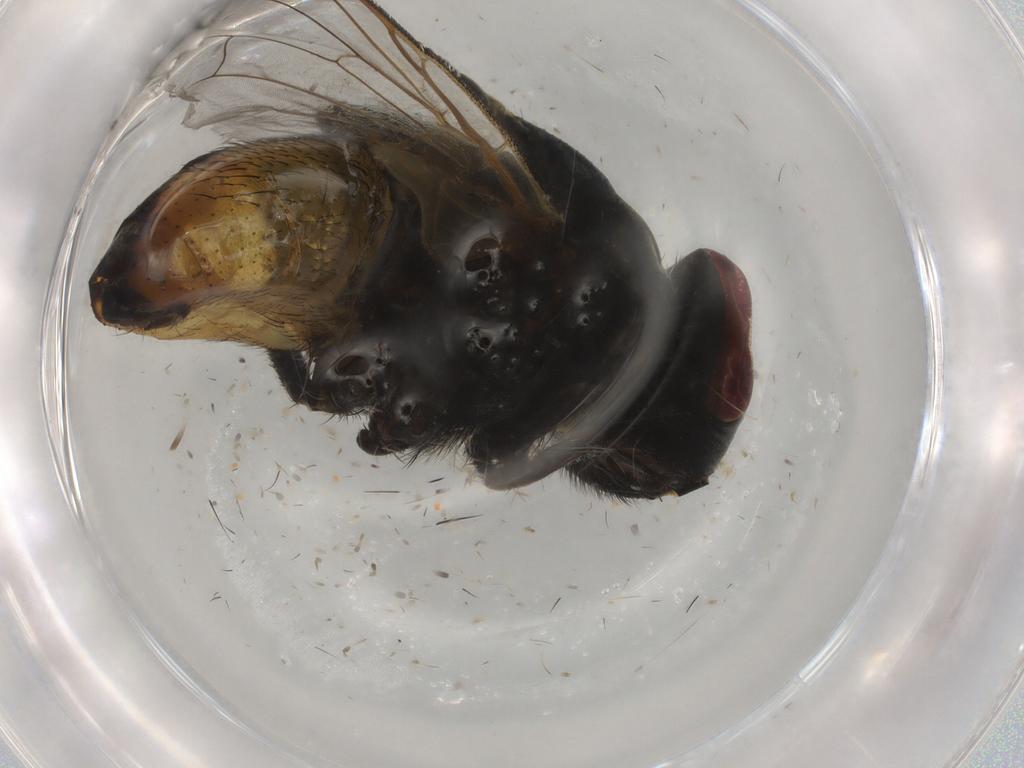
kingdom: Animalia
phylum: Arthropoda
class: Insecta
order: Diptera
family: Muscidae
